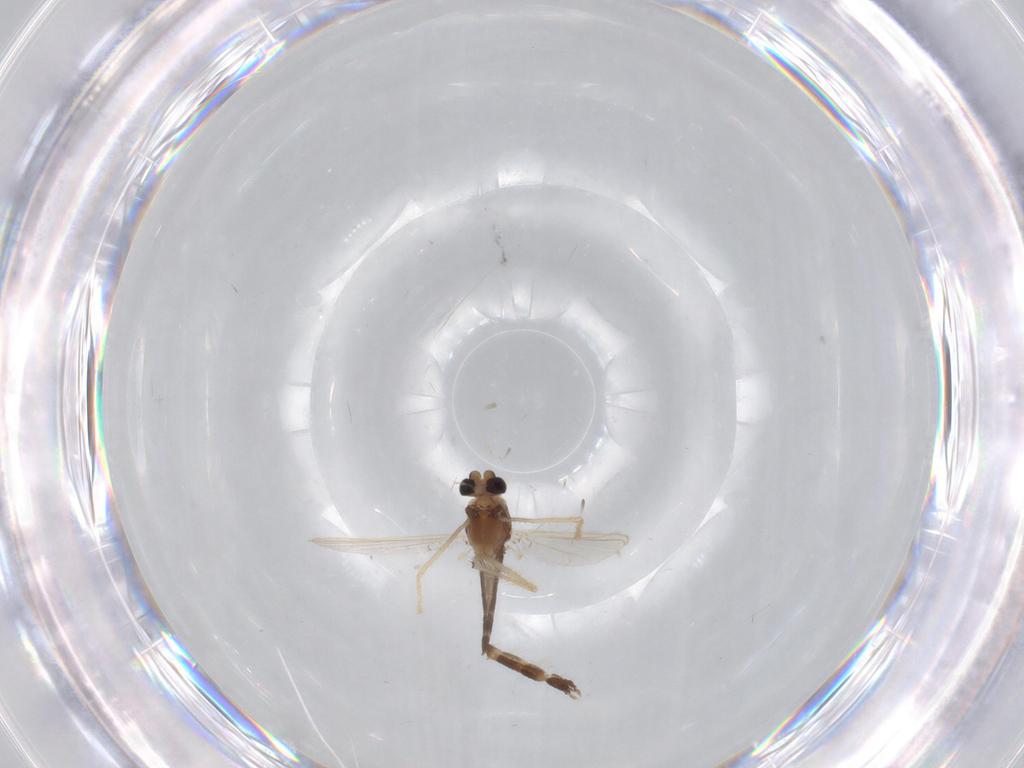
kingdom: Animalia
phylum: Arthropoda
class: Insecta
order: Diptera
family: Chironomidae
